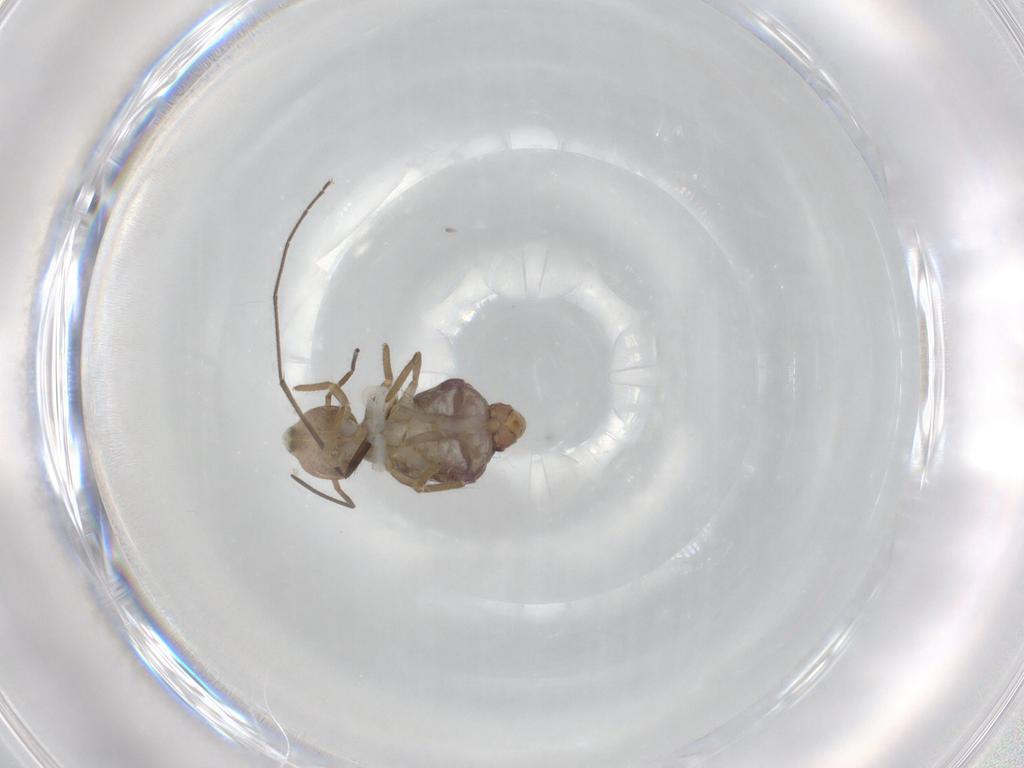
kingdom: Animalia
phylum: Arthropoda
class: Collembola
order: Symphypleona
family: Sminthuridae
